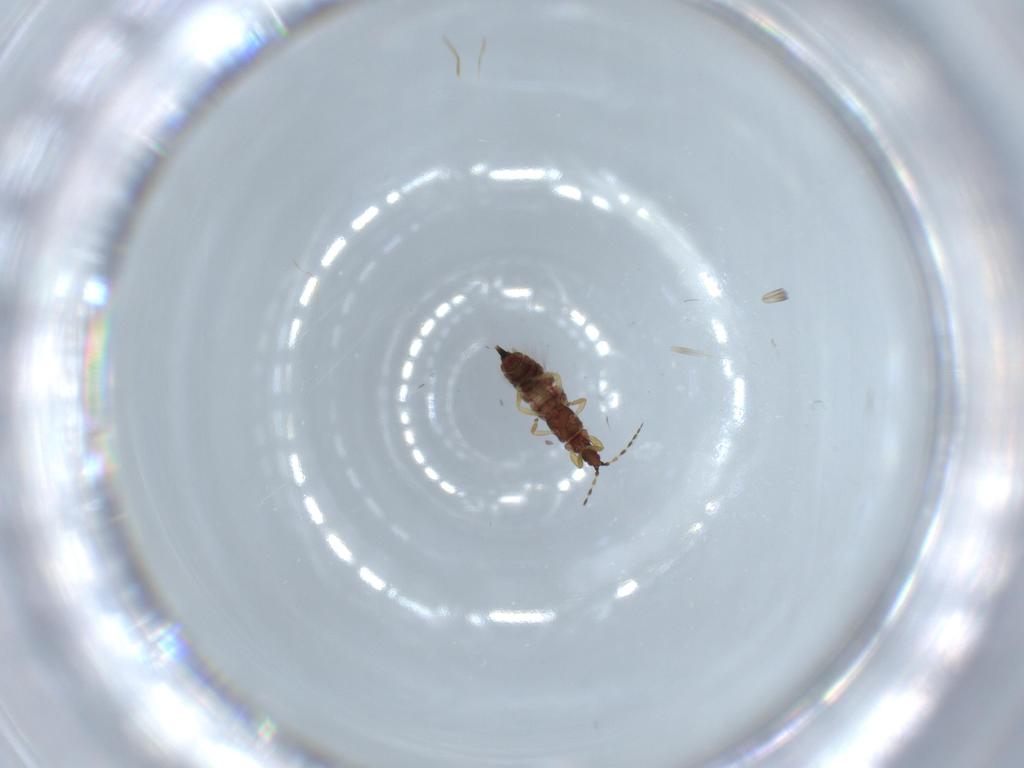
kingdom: Animalia
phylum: Arthropoda
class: Insecta
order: Thysanoptera
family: Phlaeothripidae
